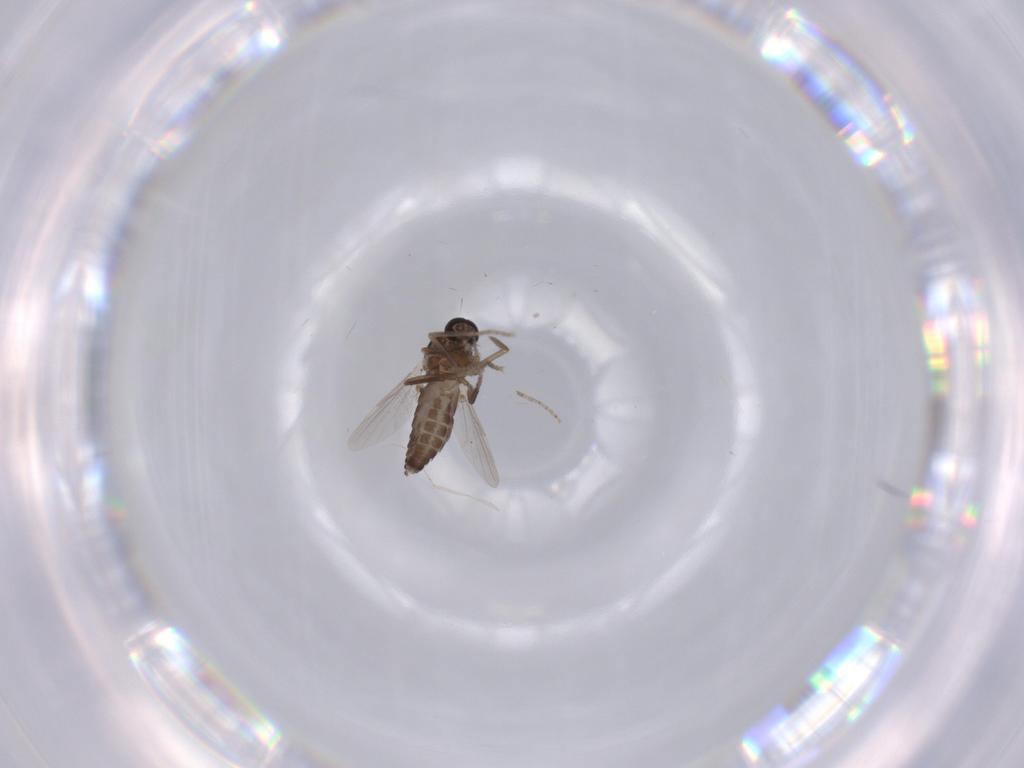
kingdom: Animalia
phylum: Arthropoda
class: Insecta
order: Diptera
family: Ceratopogonidae
